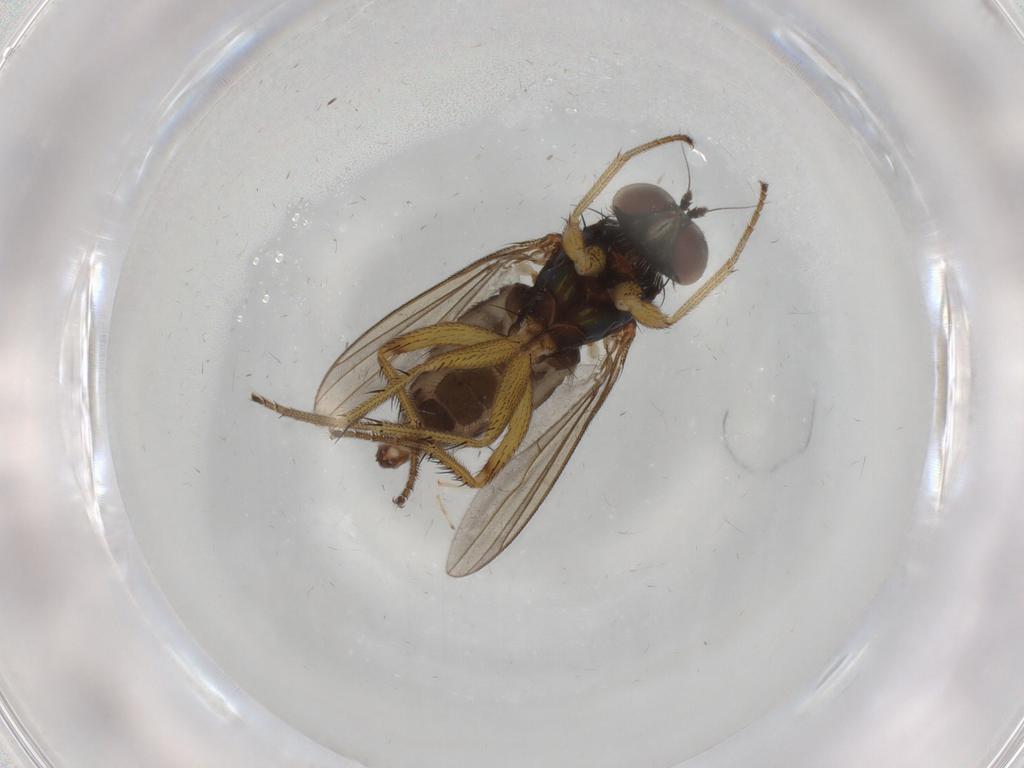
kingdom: Animalia
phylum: Arthropoda
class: Insecta
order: Diptera
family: Dolichopodidae
